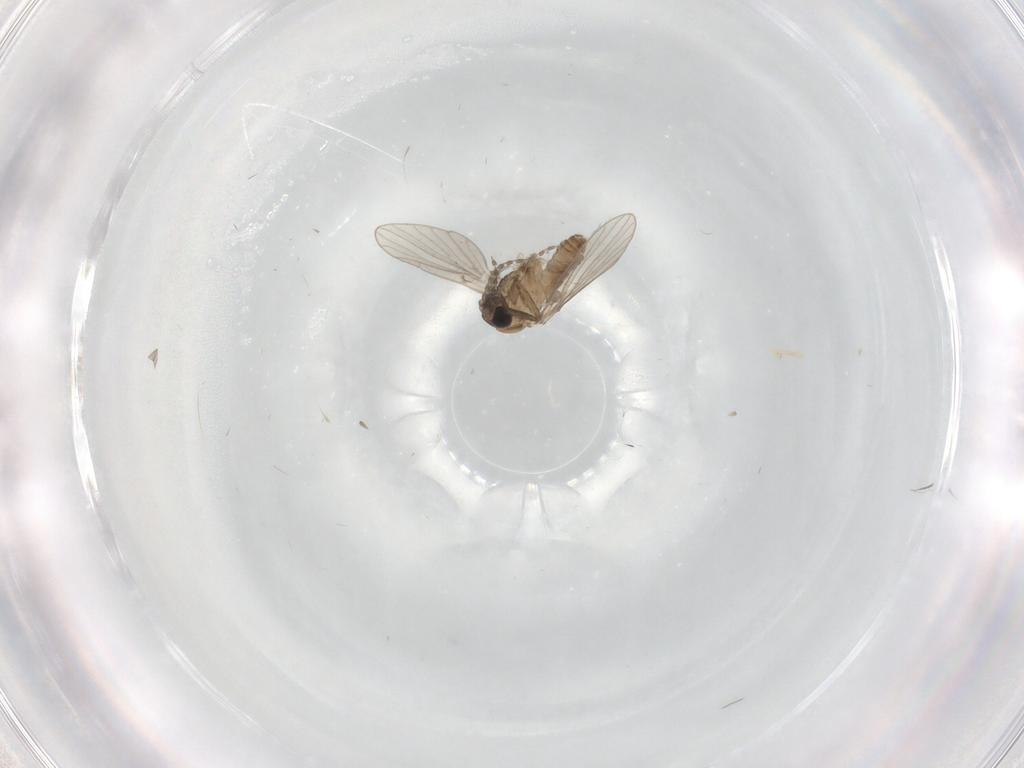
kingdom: Animalia
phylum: Arthropoda
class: Insecta
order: Diptera
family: Psychodidae
